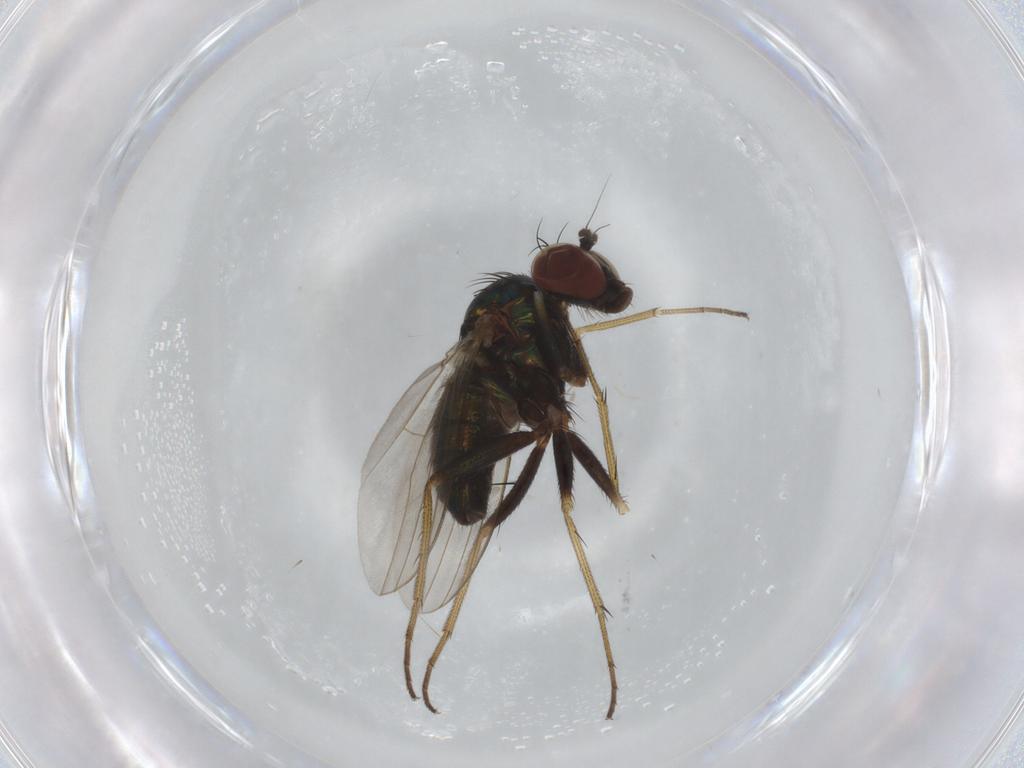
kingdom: Animalia
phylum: Arthropoda
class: Insecta
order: Diptera
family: Dolichopodidae
